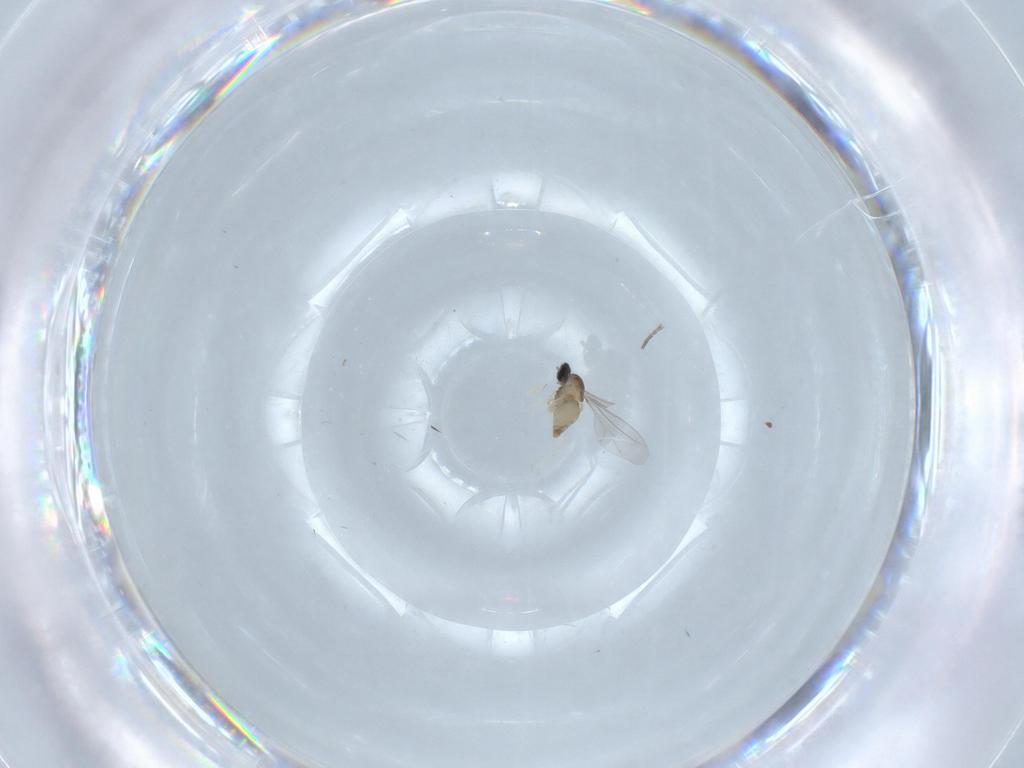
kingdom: Animalia
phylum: Arthropoda
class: Insecta
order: Diptera
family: Cecidomyiidae
